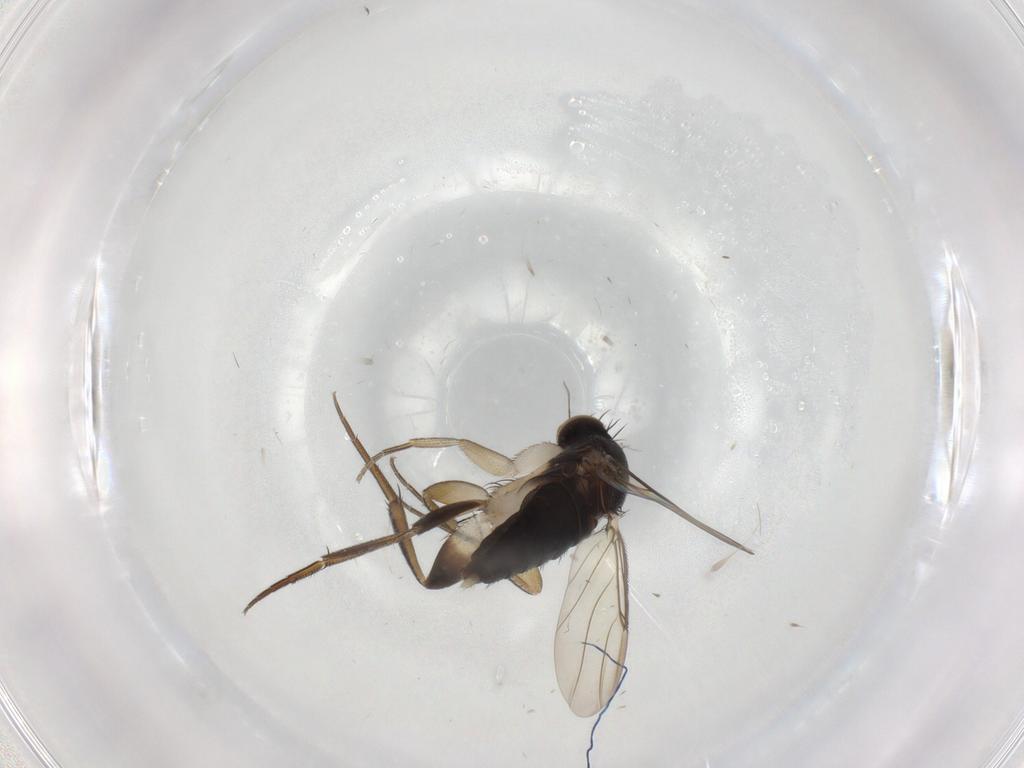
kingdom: Animalia
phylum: Arthropoda
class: Insecta
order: Diptera
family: Phoridae
